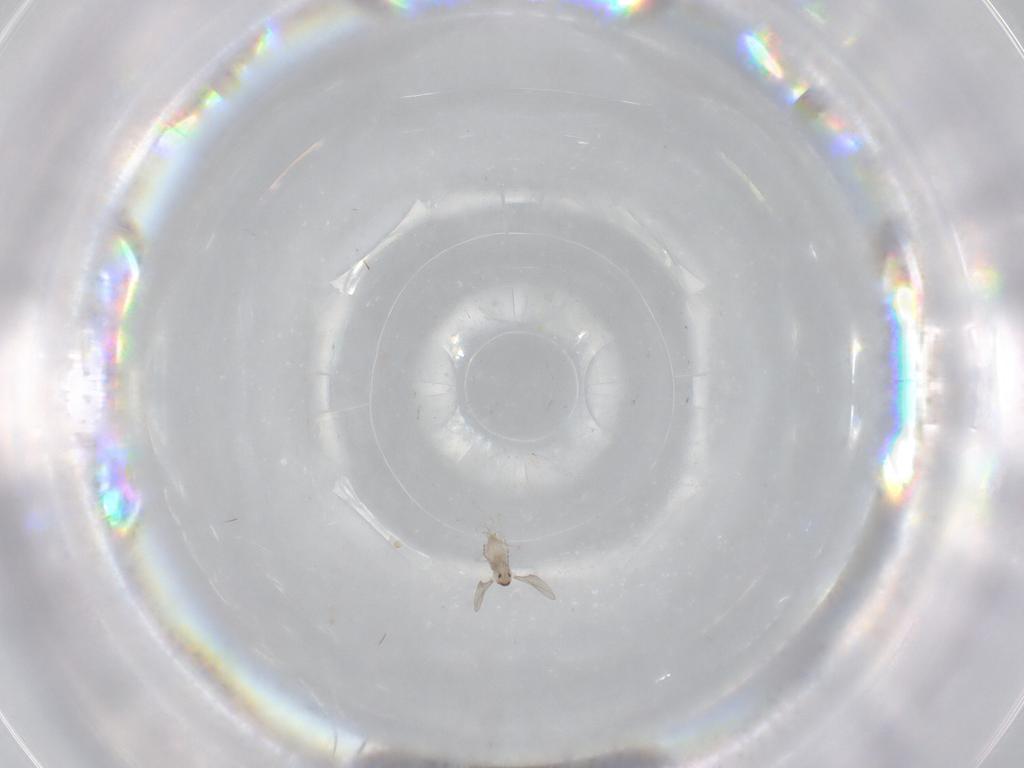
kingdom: Animalia
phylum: Arthropoda
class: Insecta
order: Diptera
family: Cecidomyiidae
